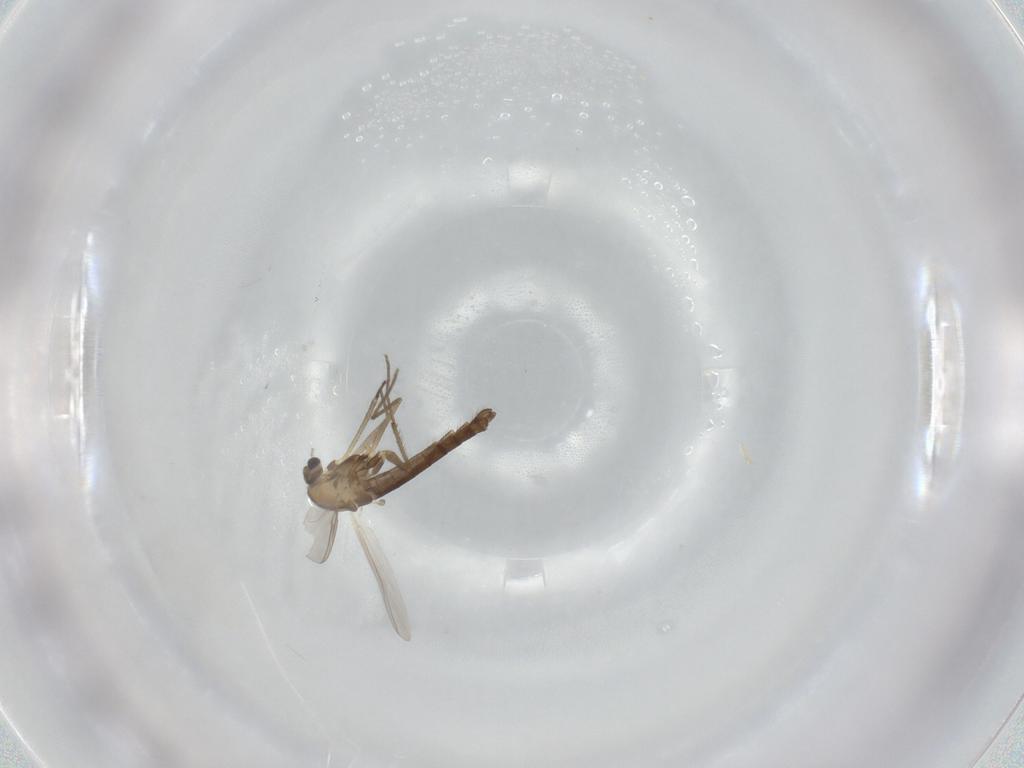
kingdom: Animalia
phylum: Arthropoda
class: Insecta
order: Diptera
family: Chironomidae
